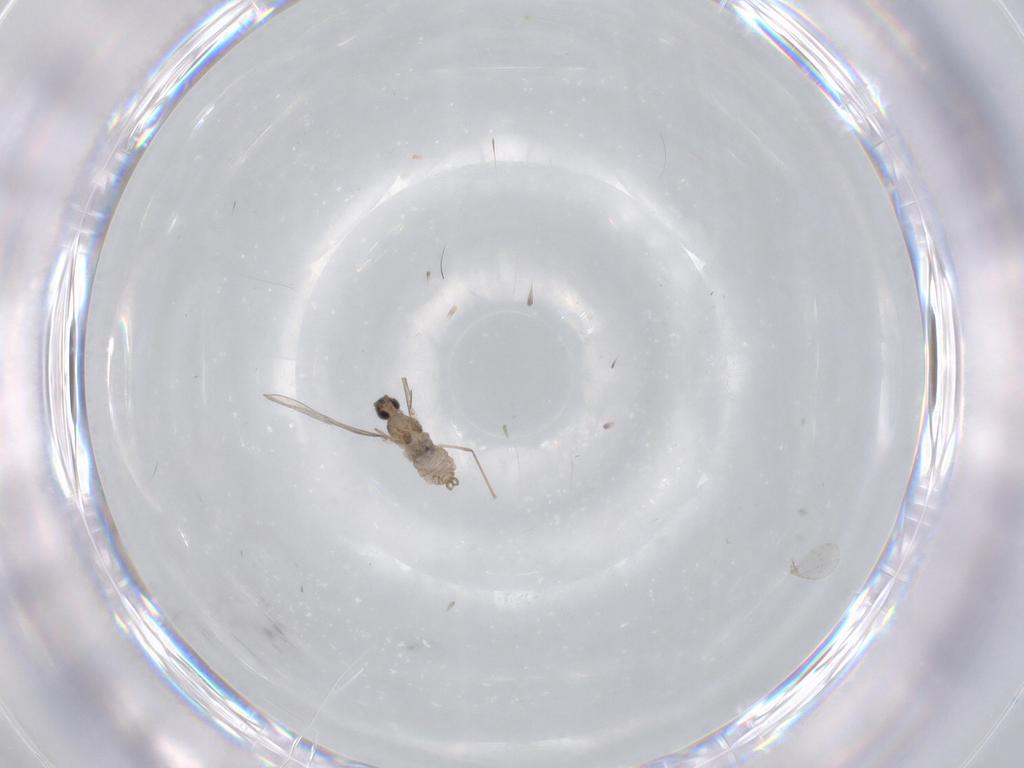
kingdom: Animalia
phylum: Arthropoda
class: Insecta
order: Diptera
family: Cecidomyiidae
